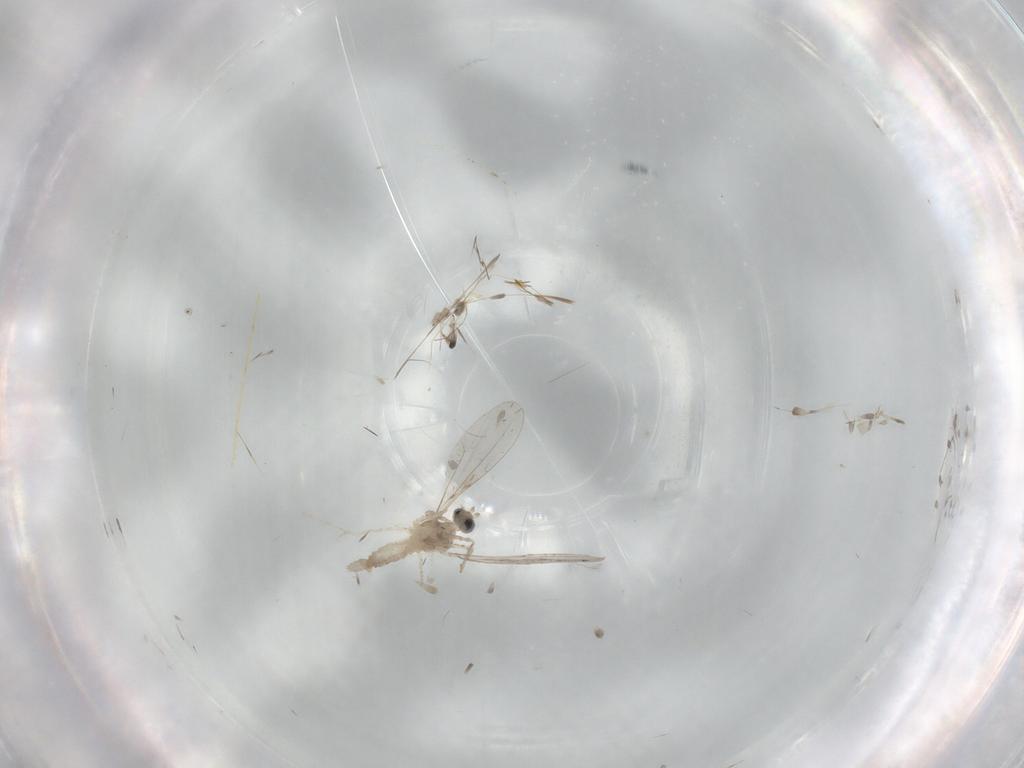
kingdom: Animalia
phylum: Arthropoda
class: Insecta
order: Diptera
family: Cecidomyiidae
